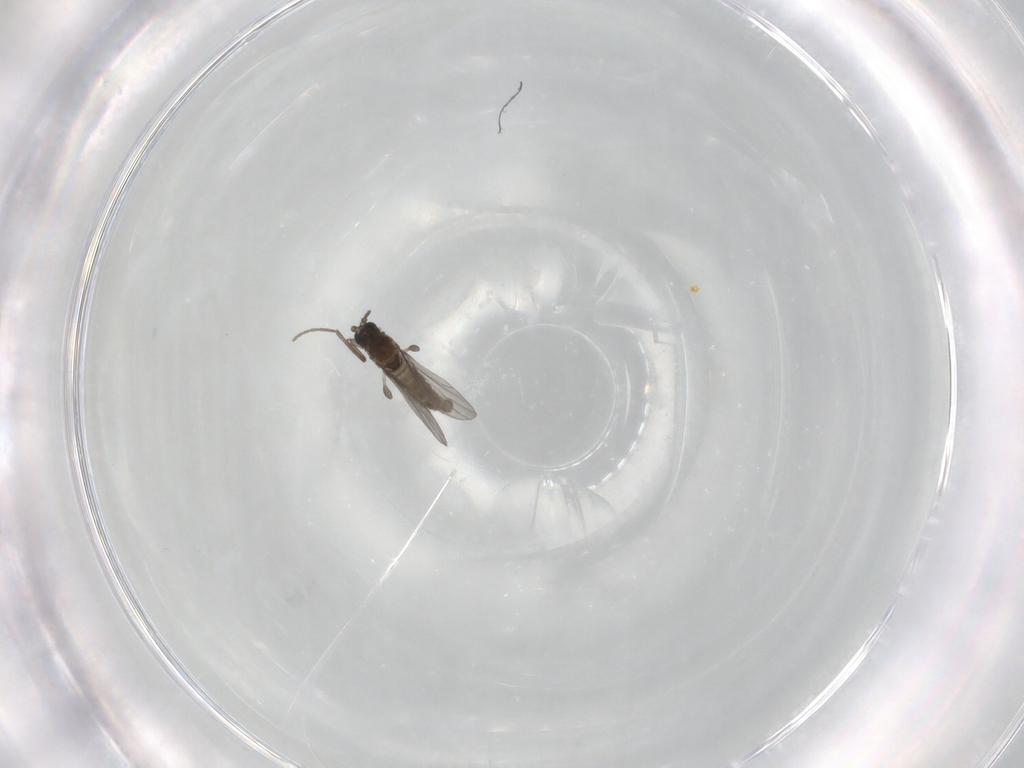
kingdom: Animalia
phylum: Arthropoda
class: Insecta
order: Diptera
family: Sciaridae
